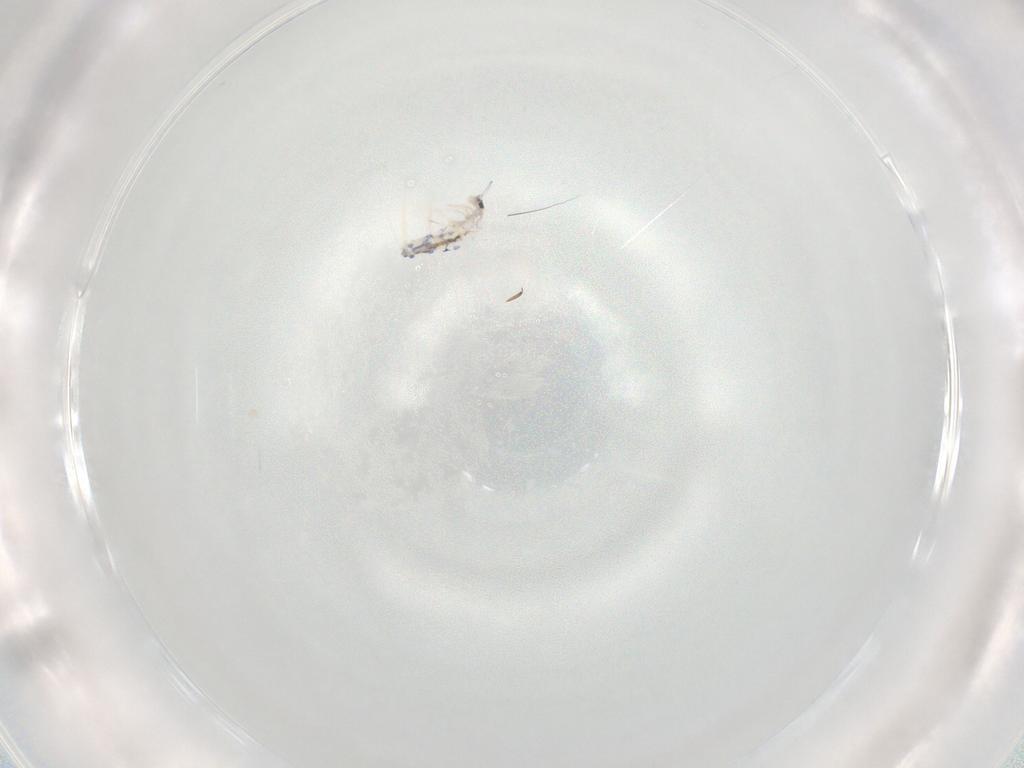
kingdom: Animalia
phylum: Arthropoda
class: Collembola
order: Entomobryomorpha
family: Entomobryidae
